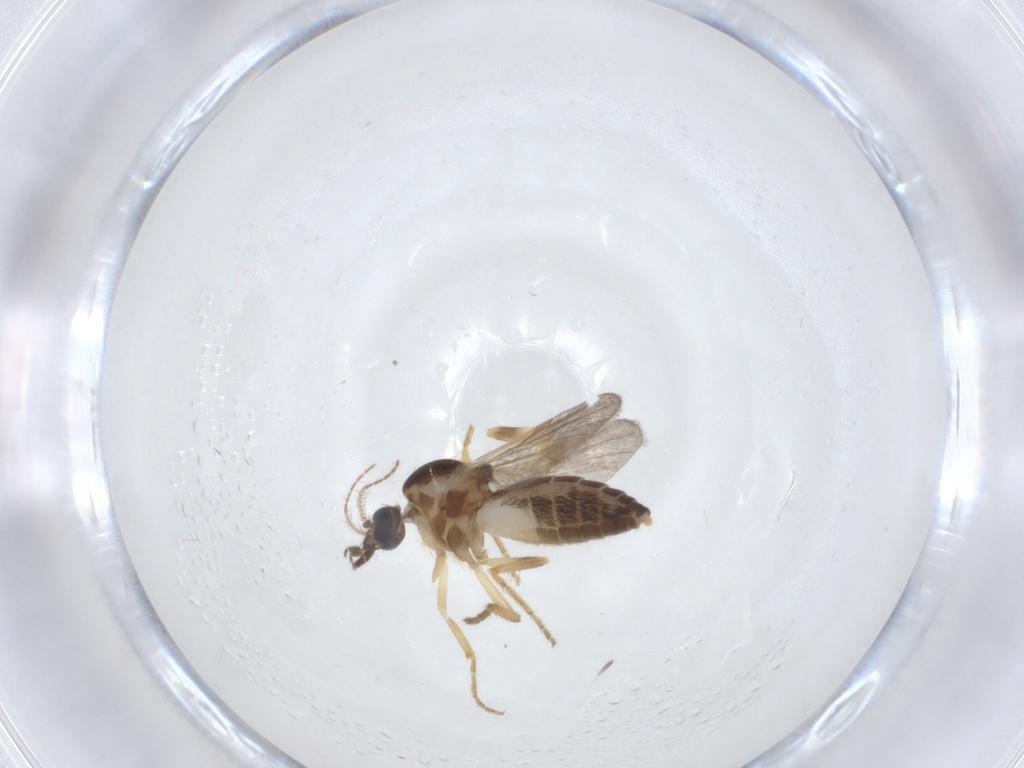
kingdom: Animalia
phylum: Arthropoda
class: Insecta
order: Diptera
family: Ceratopogonidae
